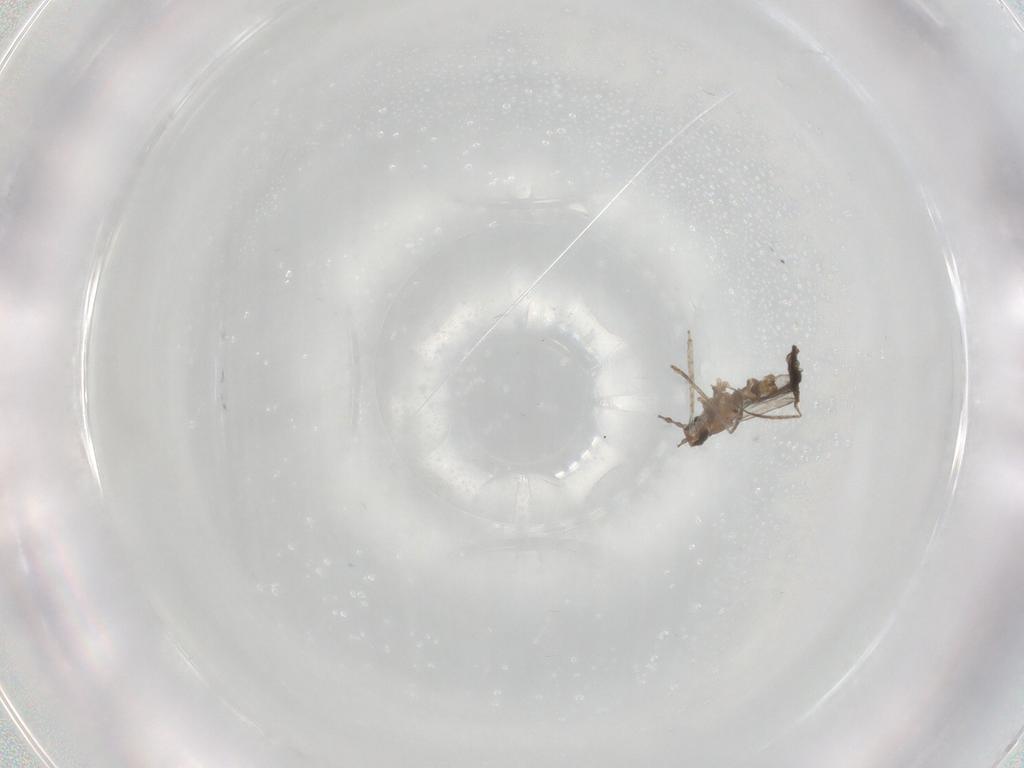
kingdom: Animalia
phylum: Arthropoda
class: Insecta
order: Diptera
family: Cecidomyiidae
